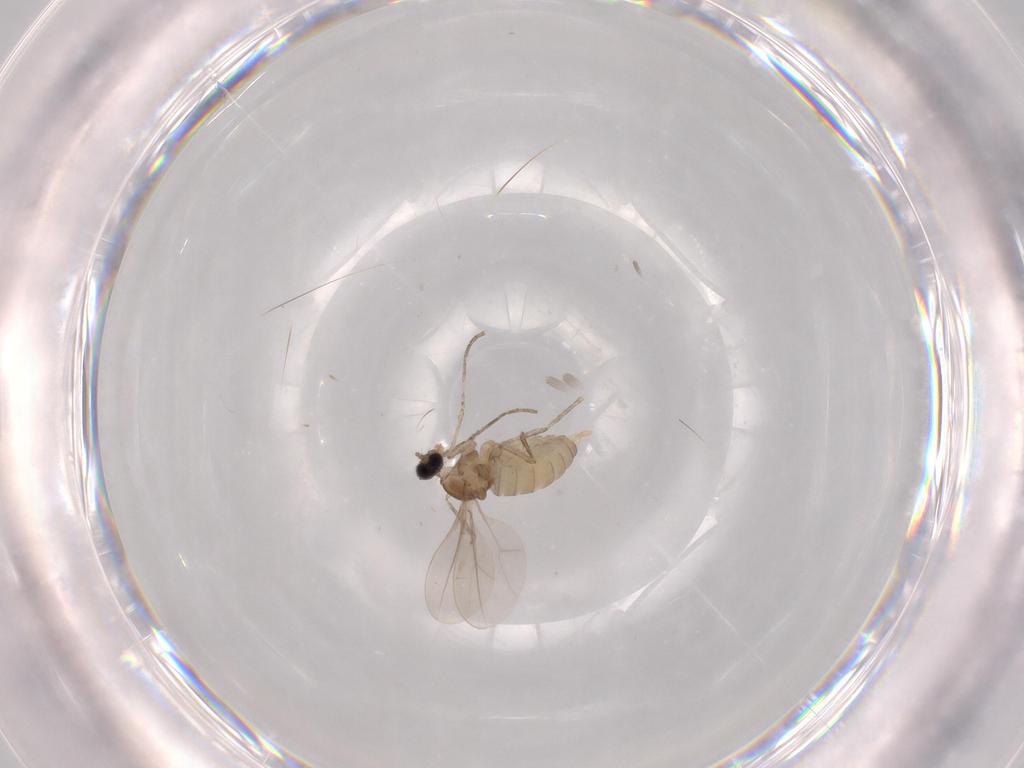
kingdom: Animalia
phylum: Arthropoda
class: Insecta
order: Diptera
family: Cecidomyiidae
